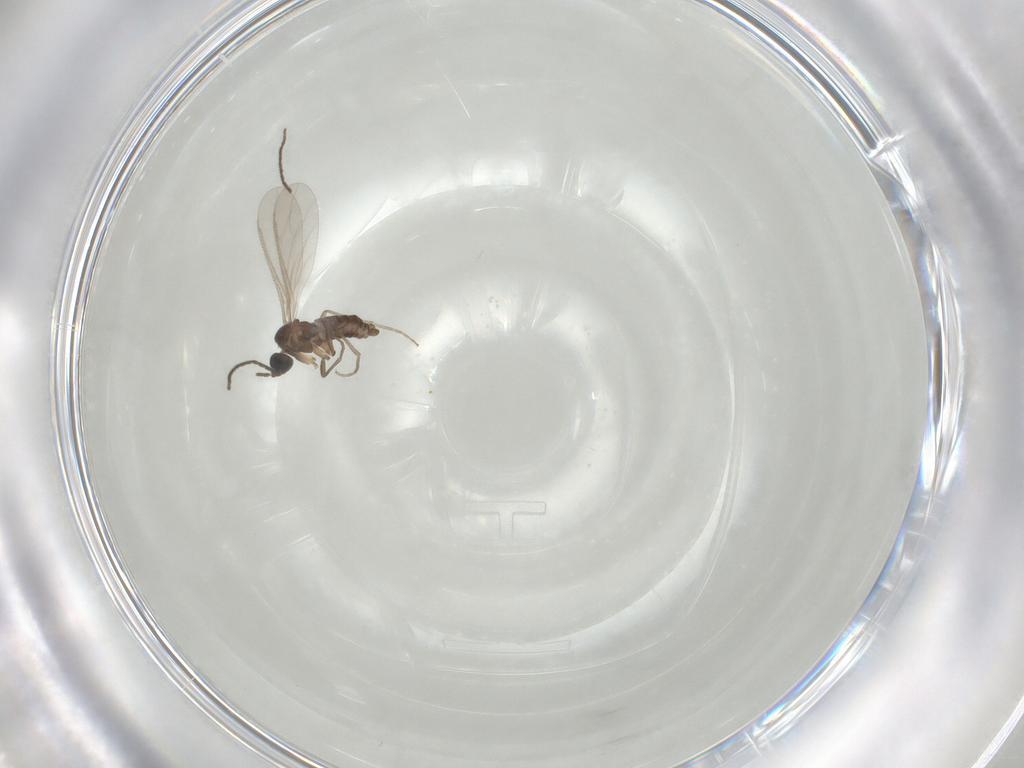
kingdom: Animalia
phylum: Arthropoda
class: Insecta
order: Diptera
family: Sciaridae
